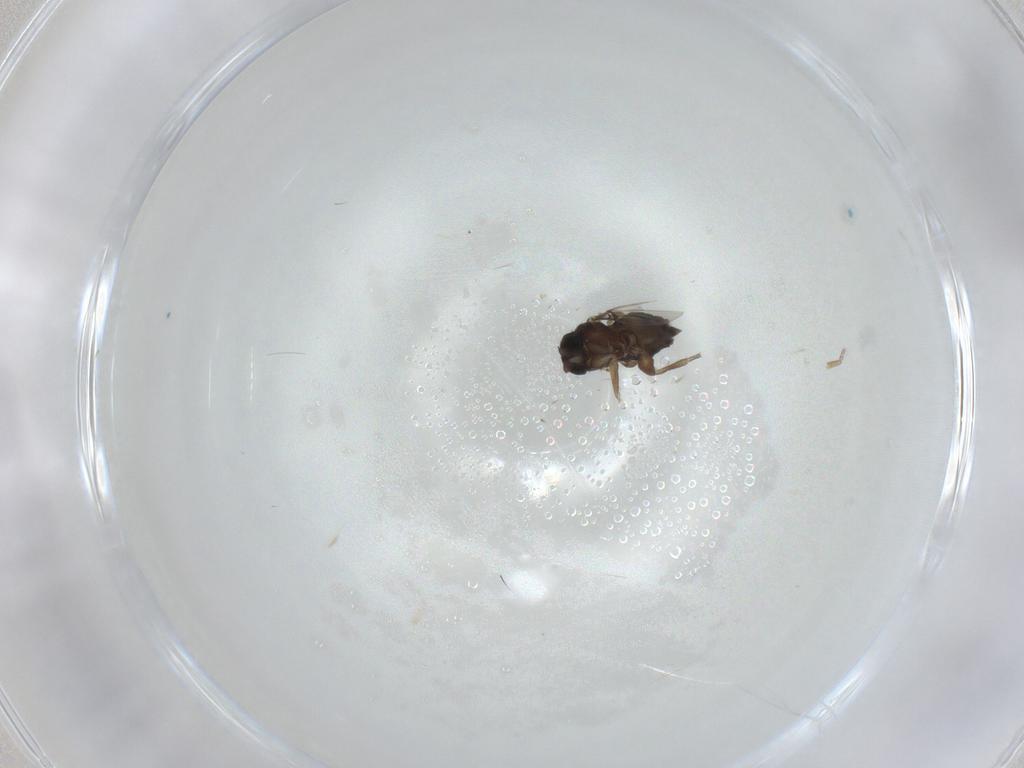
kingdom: Animalia
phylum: Arthropoda
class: Insecta
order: Diptera
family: Phoridae
